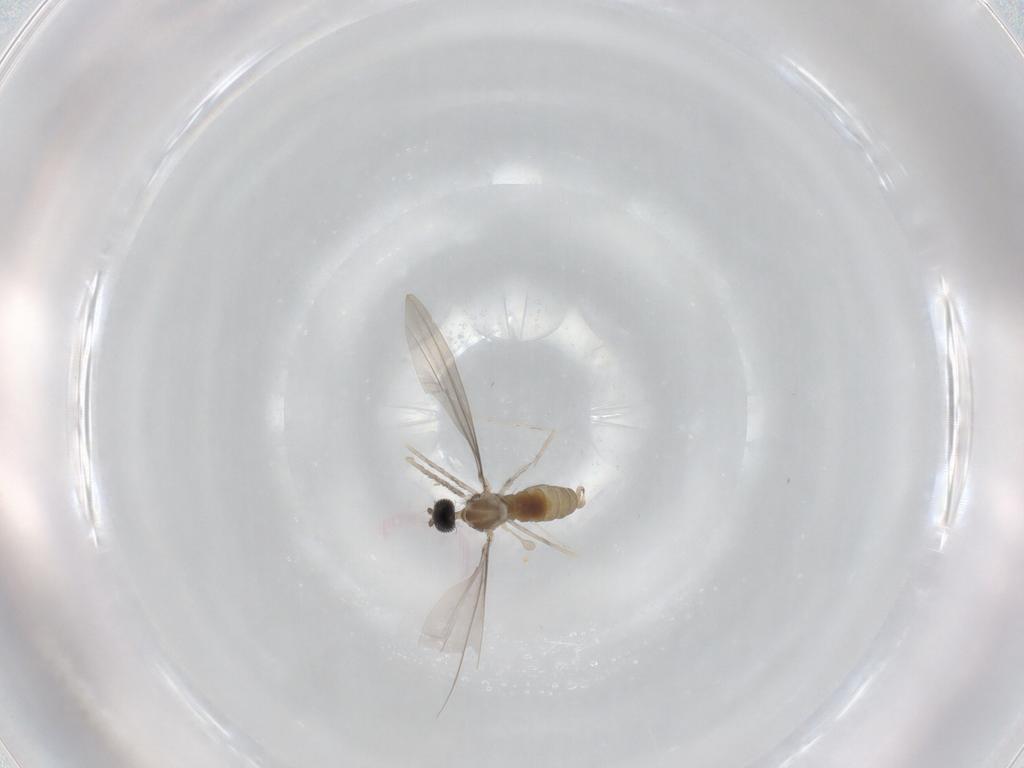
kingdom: Animalia
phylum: Arthropoda
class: Insecta
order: Diptera
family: Cecidomyiidae
